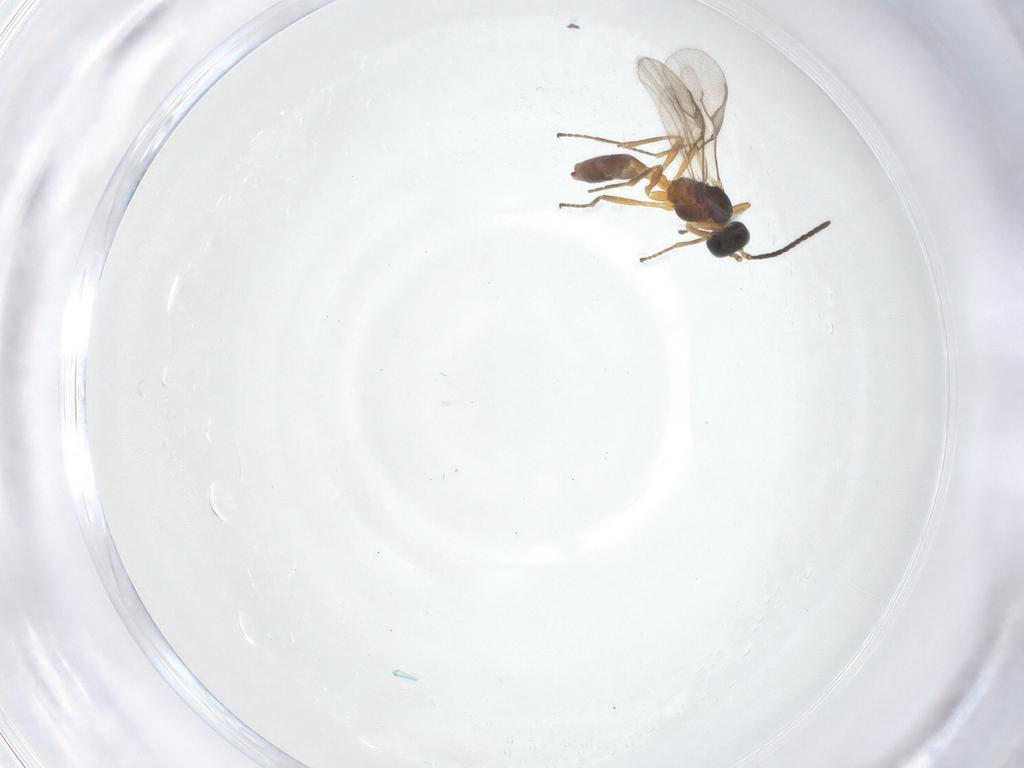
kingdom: Animalia
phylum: Arthropoda
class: Insecta
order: Hymenoptera
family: Braconidae
